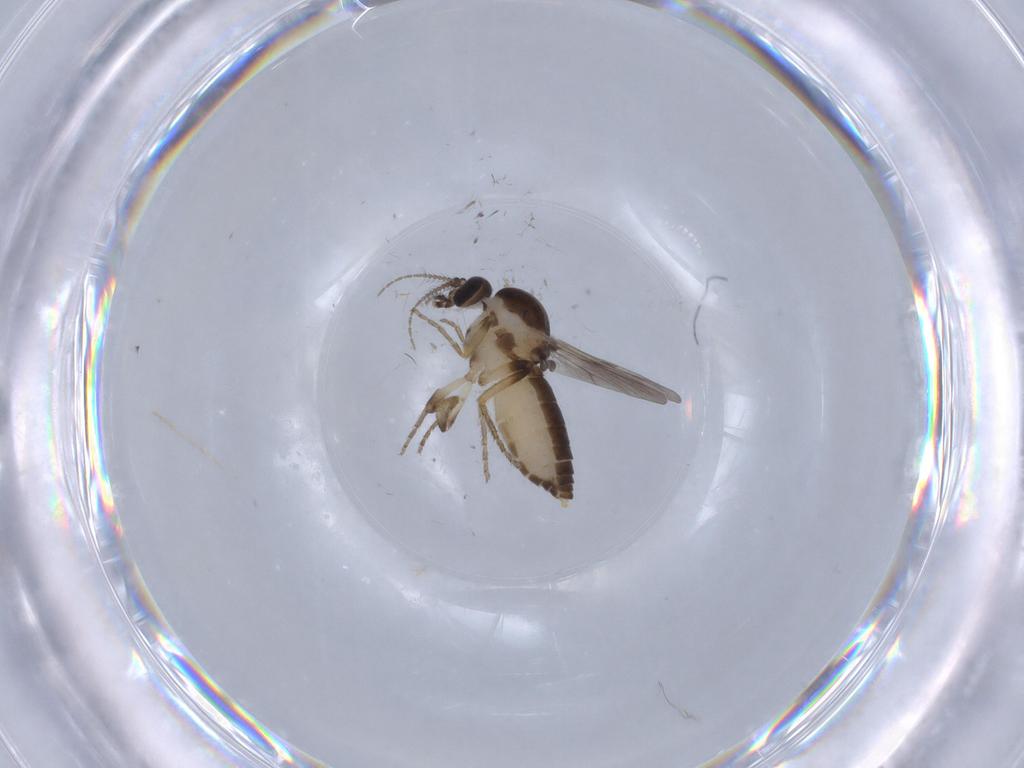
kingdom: Animalia
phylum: Arthropoda
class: Insecta
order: Diptera
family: Ceratopogonidae
